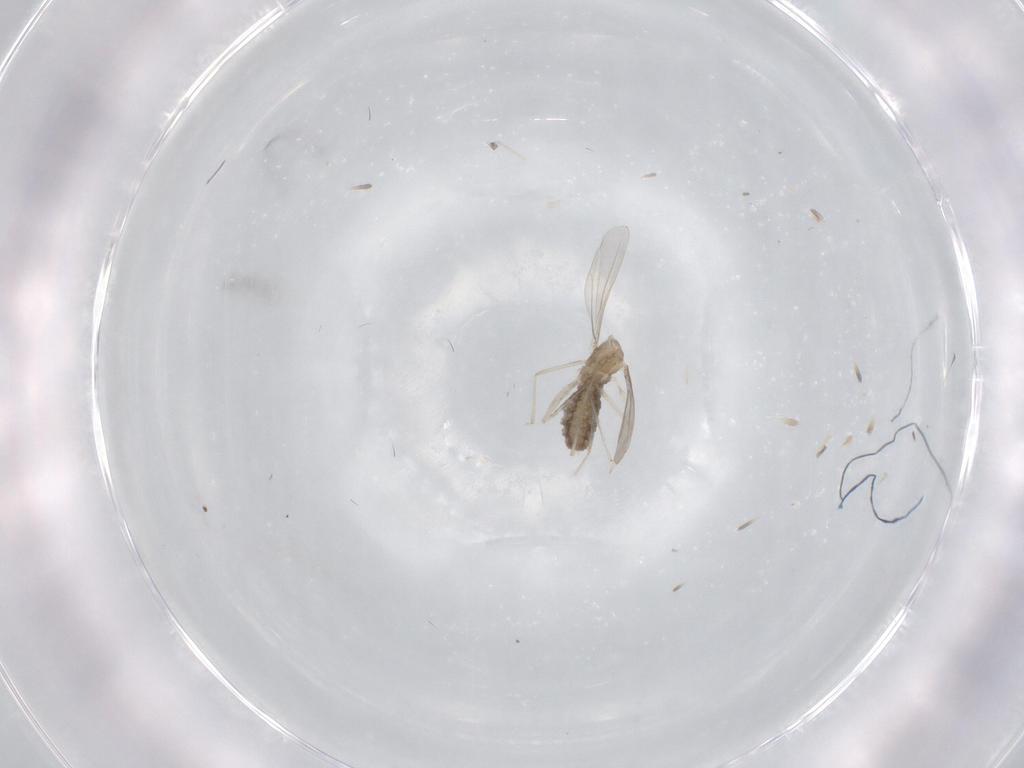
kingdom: Animalia
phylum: Arthropoda
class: Insecta
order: Diptera
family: Cecidomyiidae
